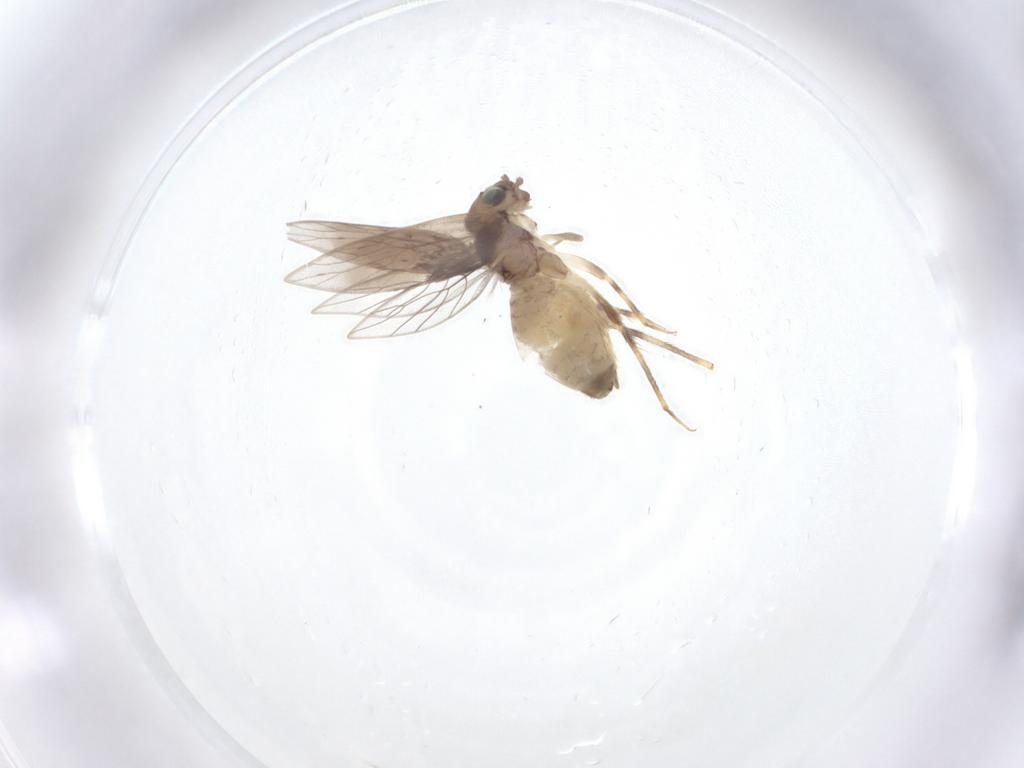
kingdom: Animalia
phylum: Arthropoda
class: Insecta
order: Psocodea
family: Lepidopsocidae
